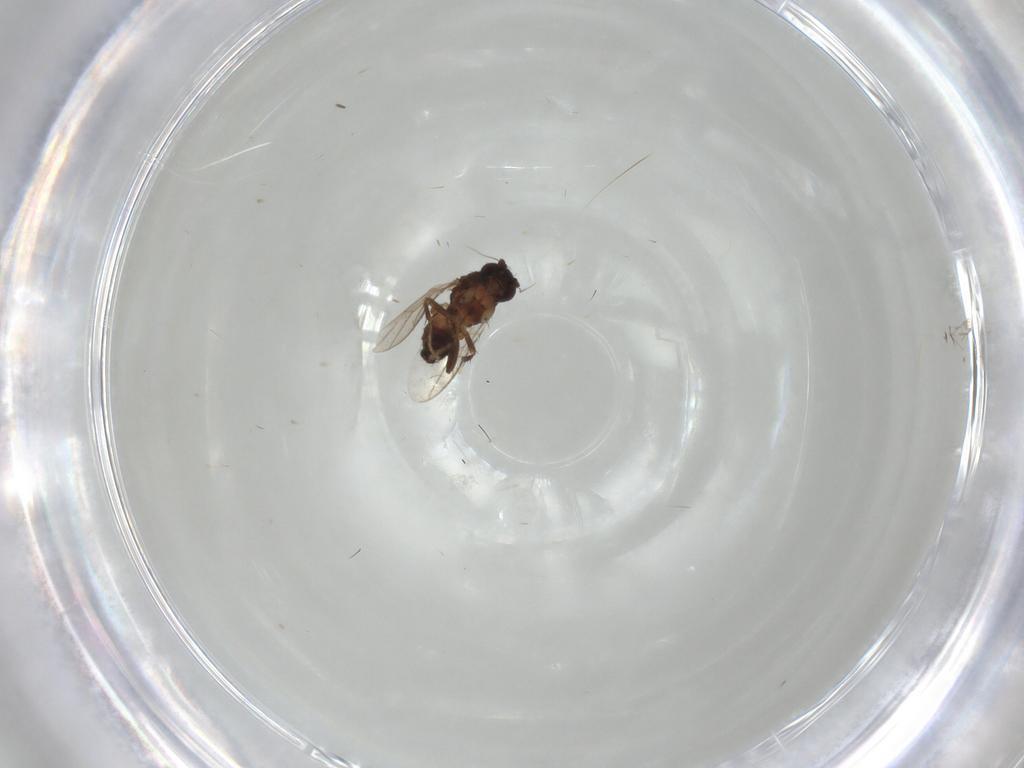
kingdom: Animalia
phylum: Arthropoda
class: Insecta
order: Diptera
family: Sphaeroceridae
